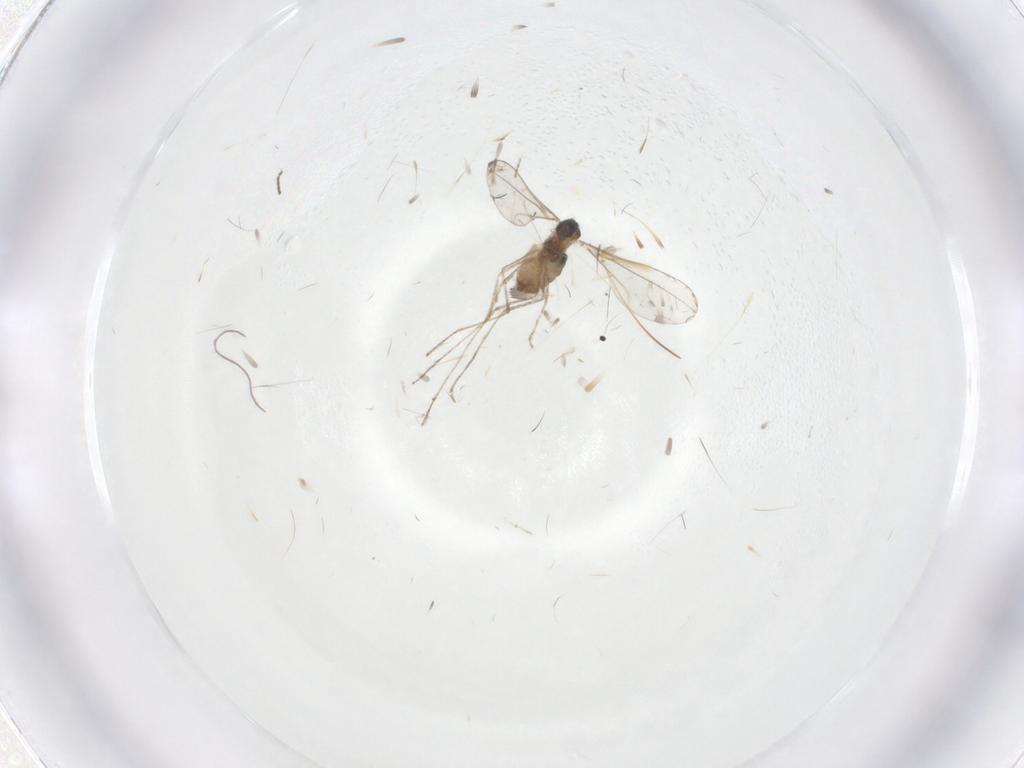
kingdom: Animalia
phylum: Arthropoda
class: Insecta
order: Diptera
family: Cecidomyiidae
